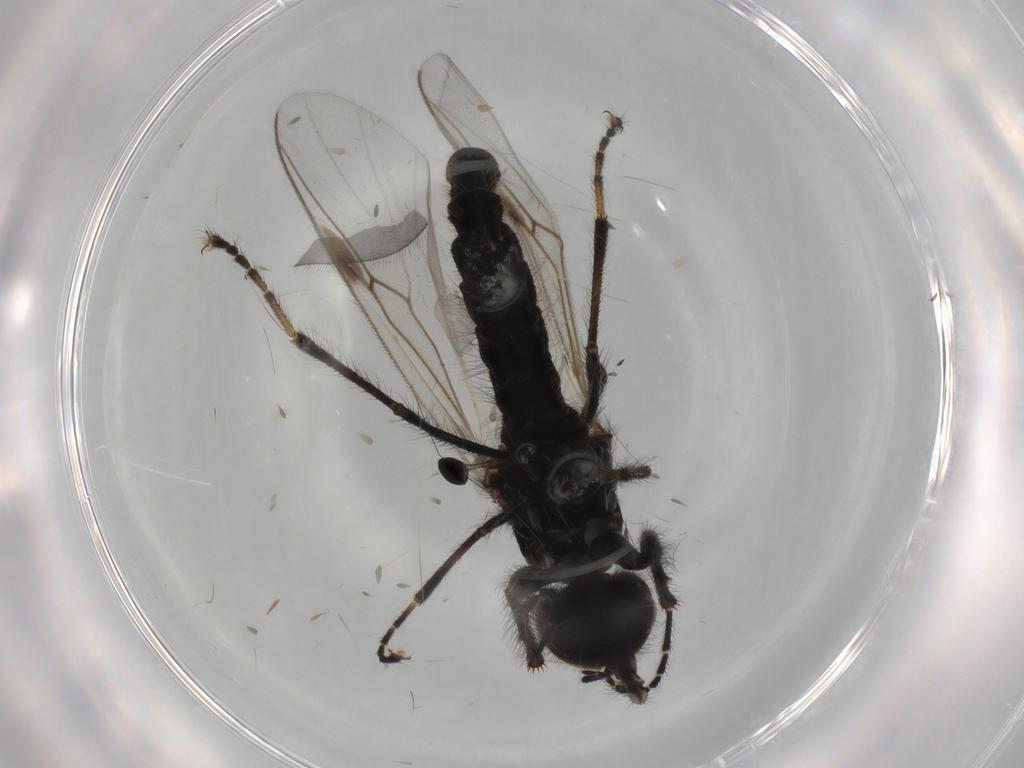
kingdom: Animalia
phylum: Arthropoda
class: Insecta
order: Diptera
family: Bibionidae
